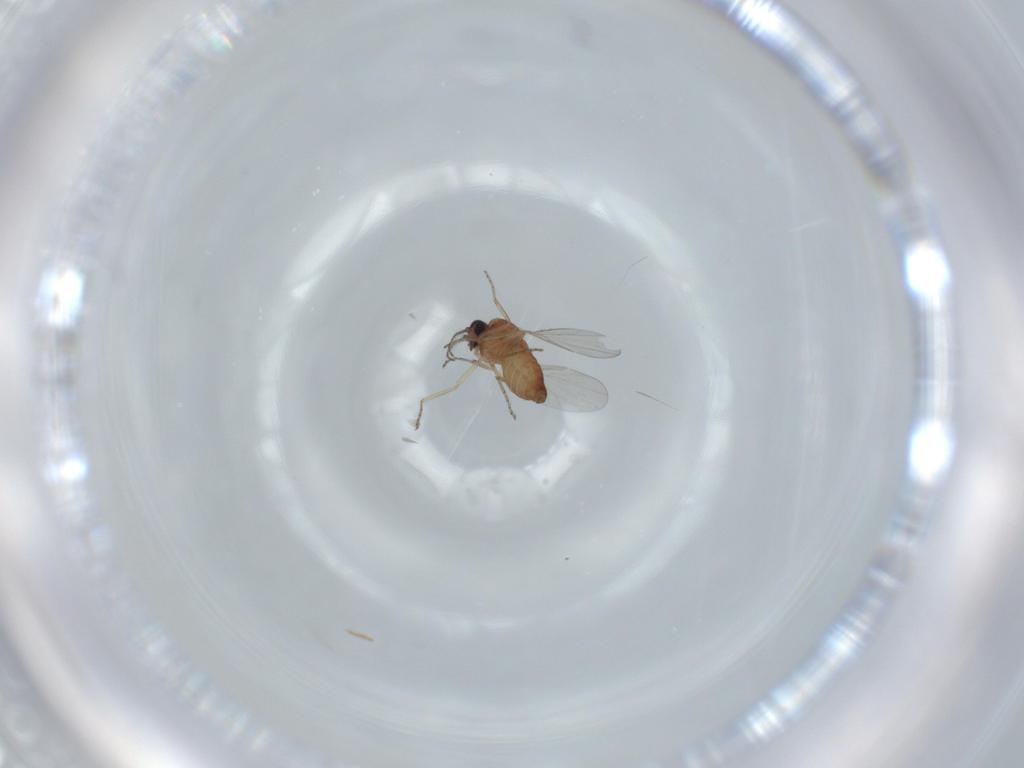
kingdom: Animalia
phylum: Arthropoda
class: Insecta
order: Diptera
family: Ceratopogonidae
